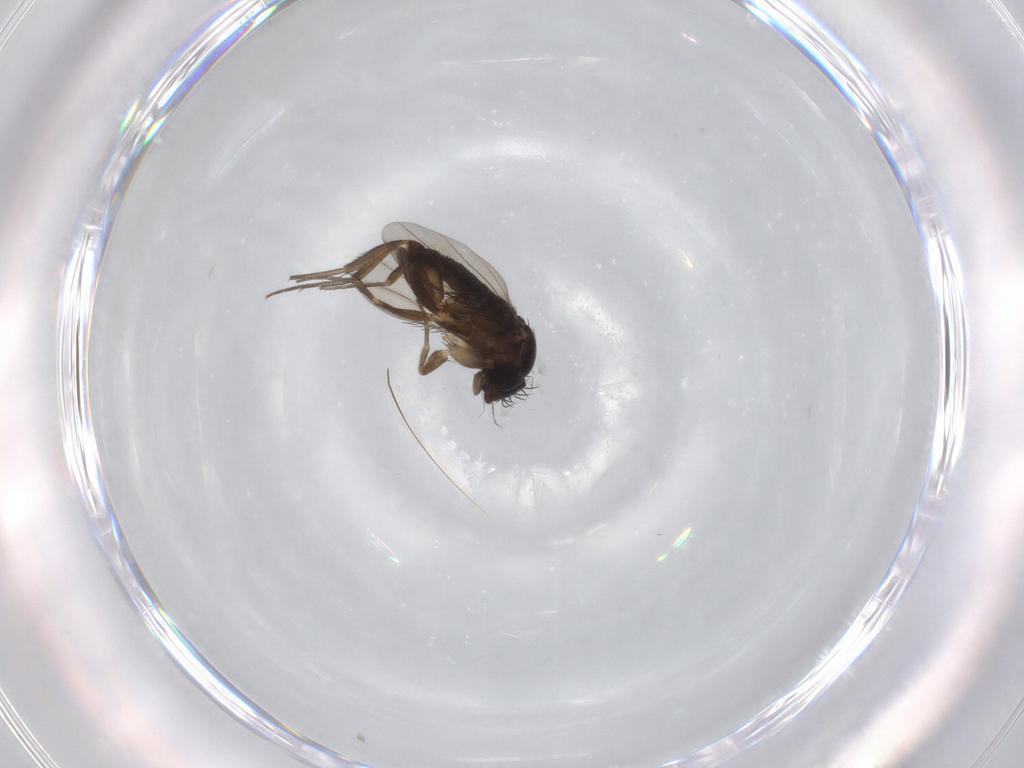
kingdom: Animalia
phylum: Arthropoda
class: Insecta
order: Diptera
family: Phoridae
